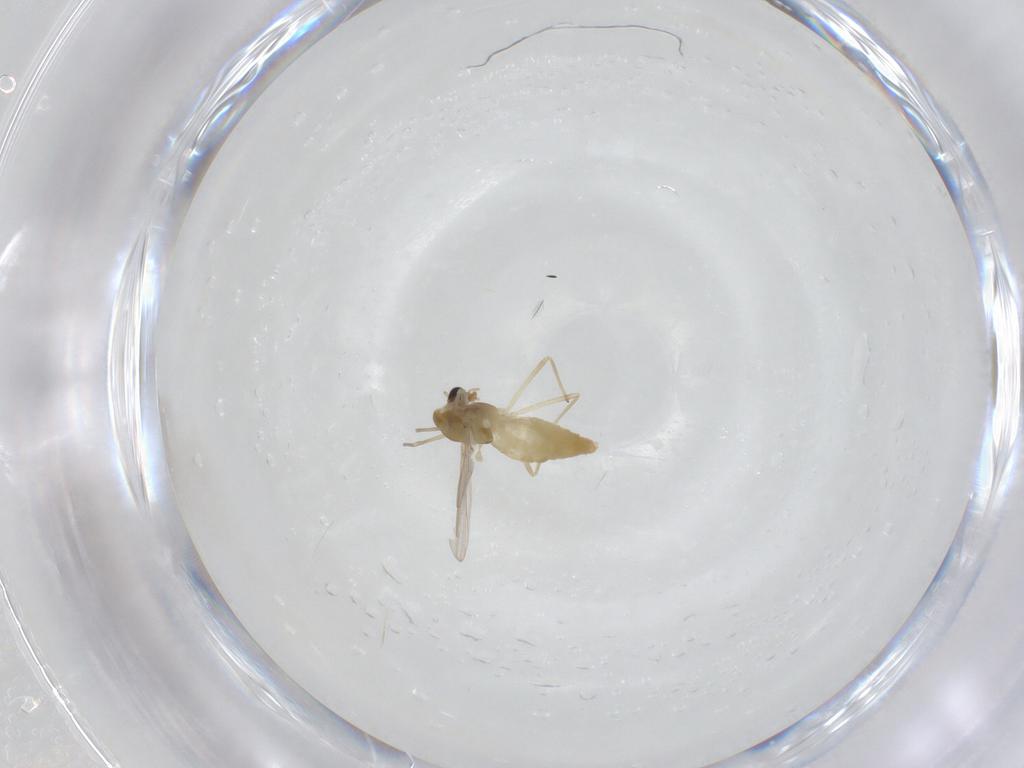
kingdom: Animalia
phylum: Arthropoda
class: Insecta
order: Diptera
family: Chironomidae
